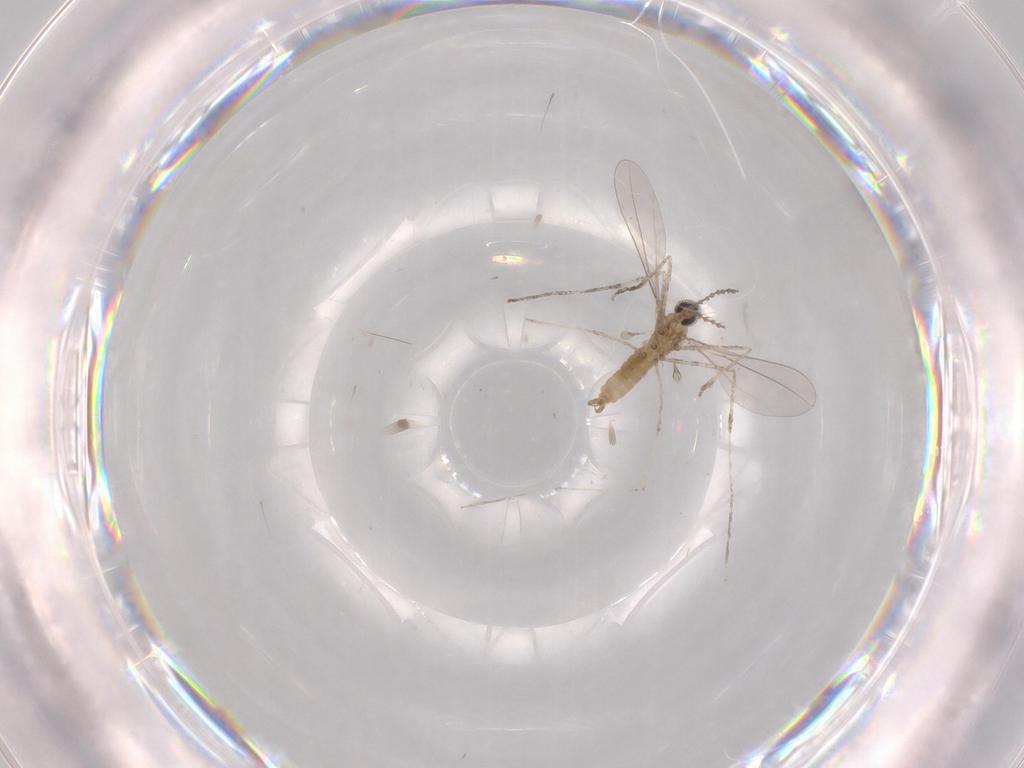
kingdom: Animalia
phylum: Arthropoda
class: Insecta
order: Diptera
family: Cecidomyiidae
